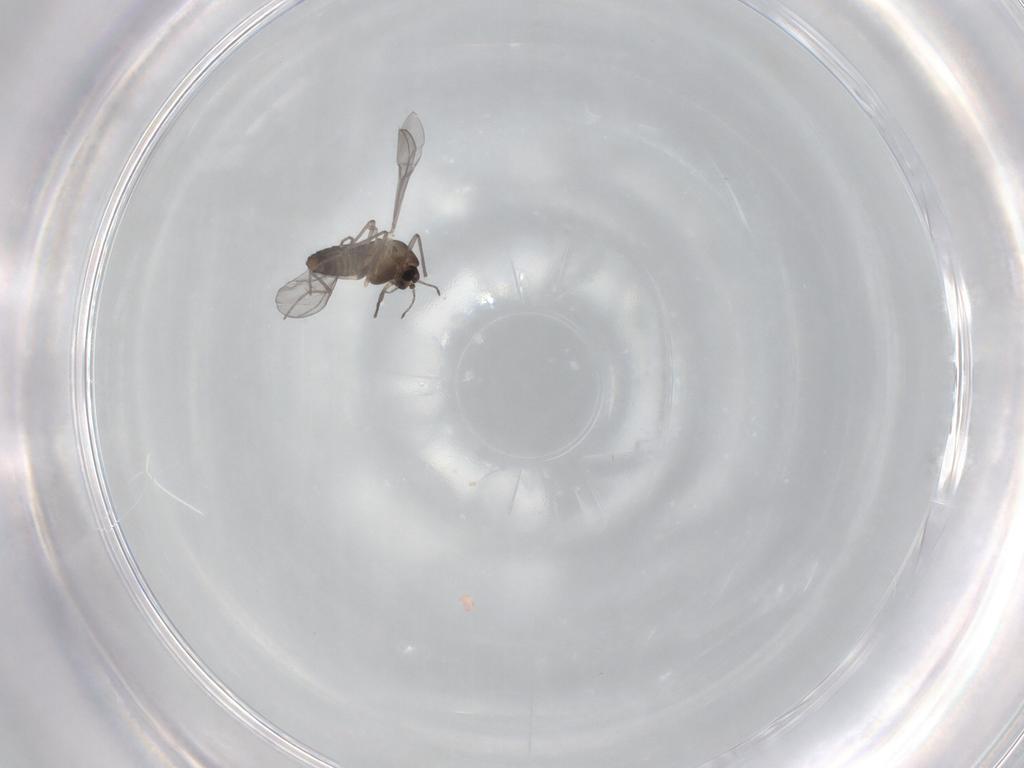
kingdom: Animalia
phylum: Arthropoda
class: Insecta
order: Diptera
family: Chironomidae
